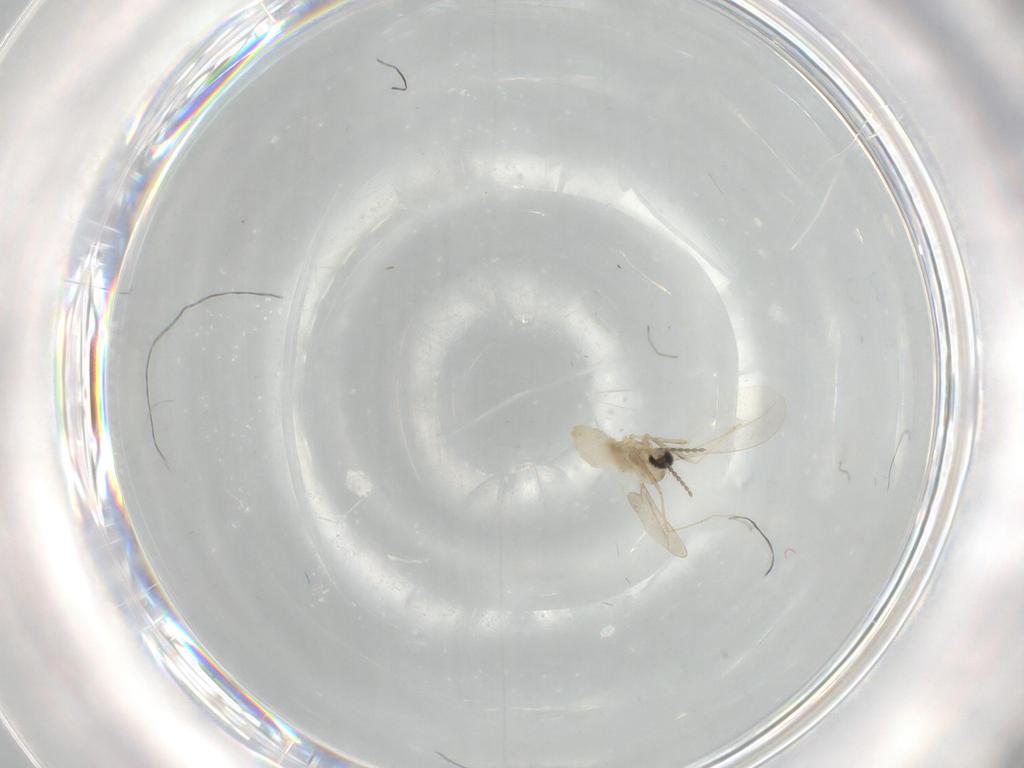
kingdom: Animalia
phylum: Arthropoda
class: Insecta
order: Diptera
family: Cecidomyiidae
